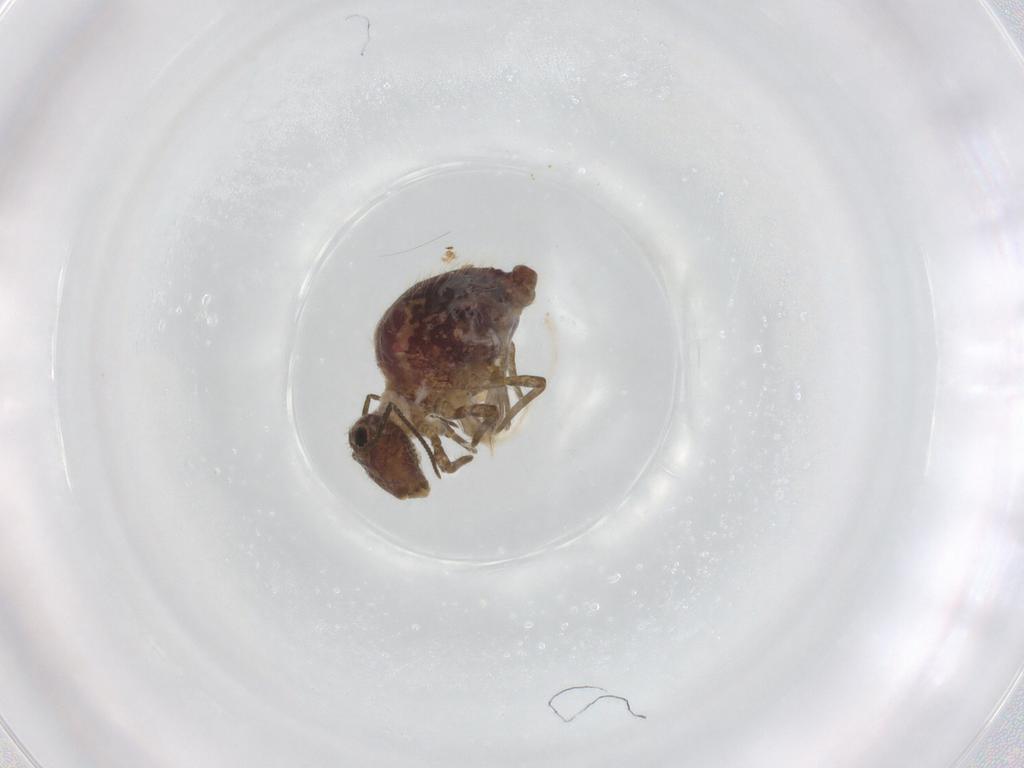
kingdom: Animalia
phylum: Arthropoda
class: Collembola
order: Symphypleona
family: Sminthuridae
